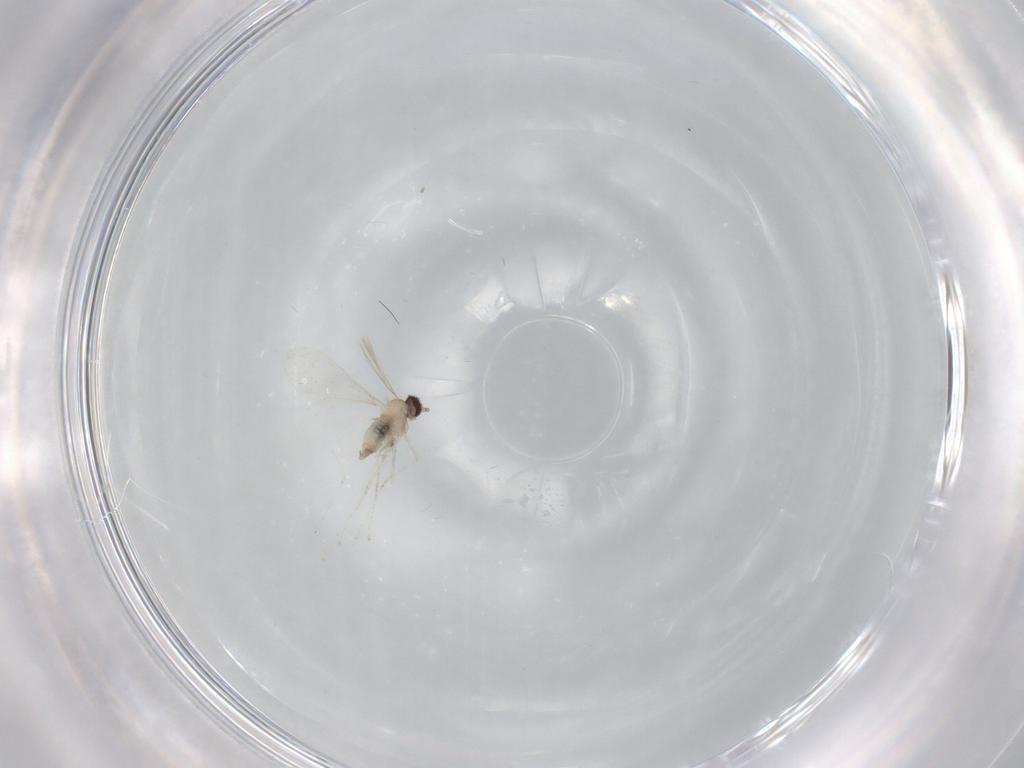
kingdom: Animalia
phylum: Arthropoda
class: Insecta
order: Diptera
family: Cecidomyiidae
